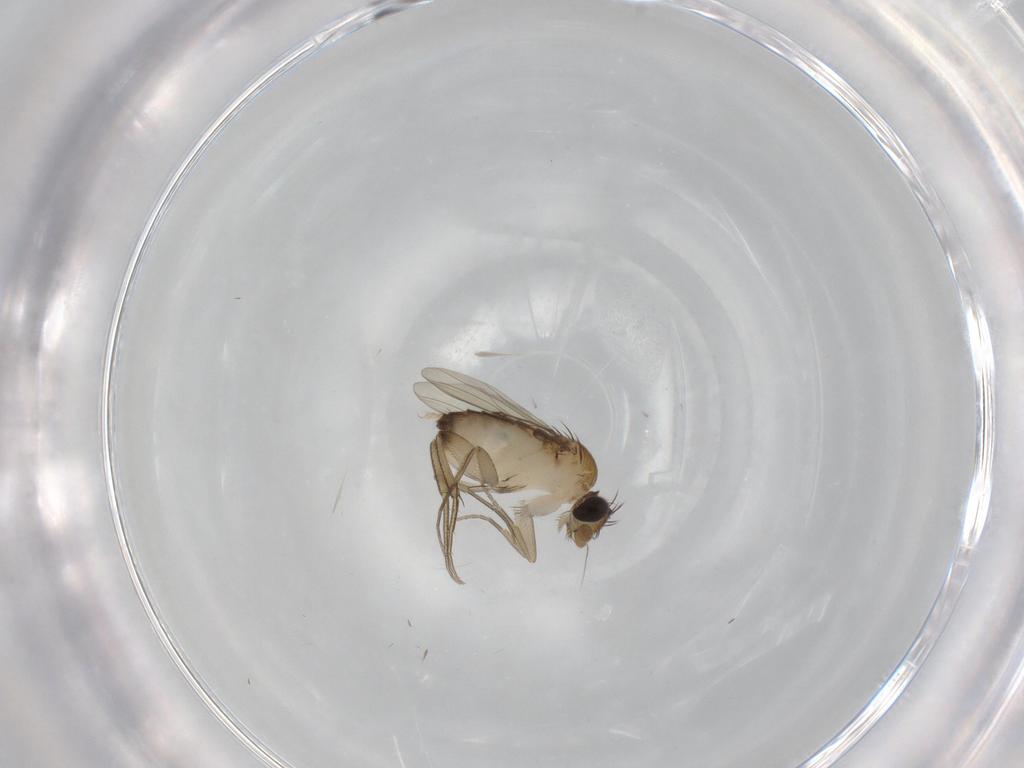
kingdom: Animalia
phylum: Arthropoda
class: Insecta
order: Diptera
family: Phoridae
